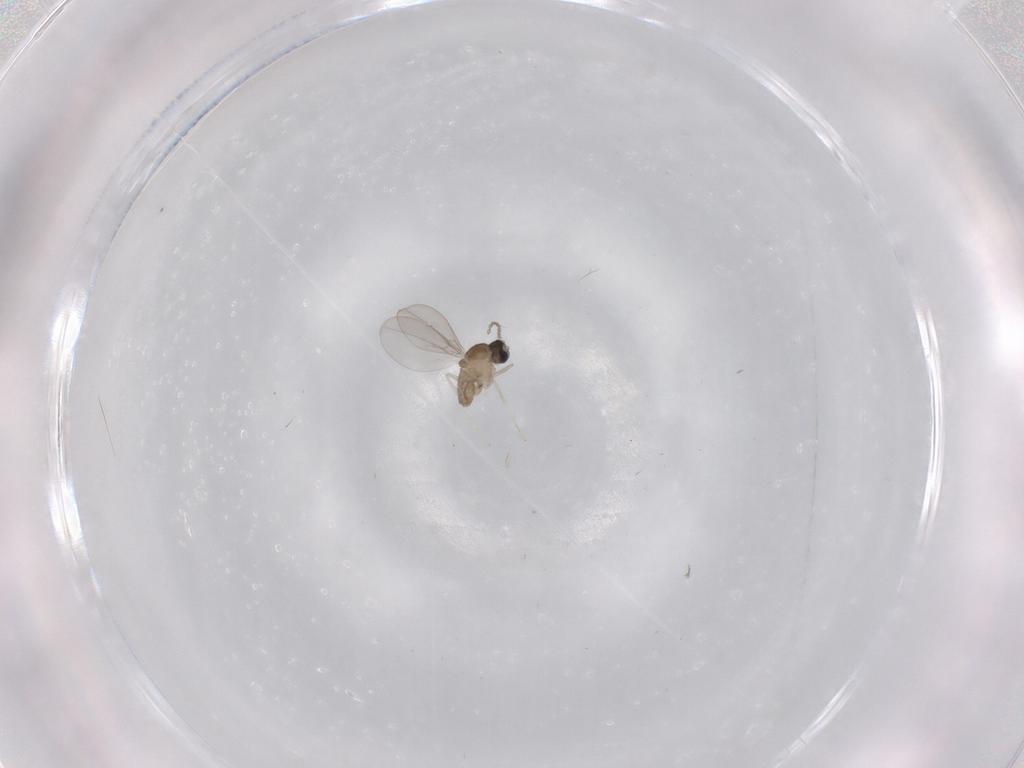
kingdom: Animalia
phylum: Arthropoda
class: Insecta
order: Diptera
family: Cecidomyiidae
